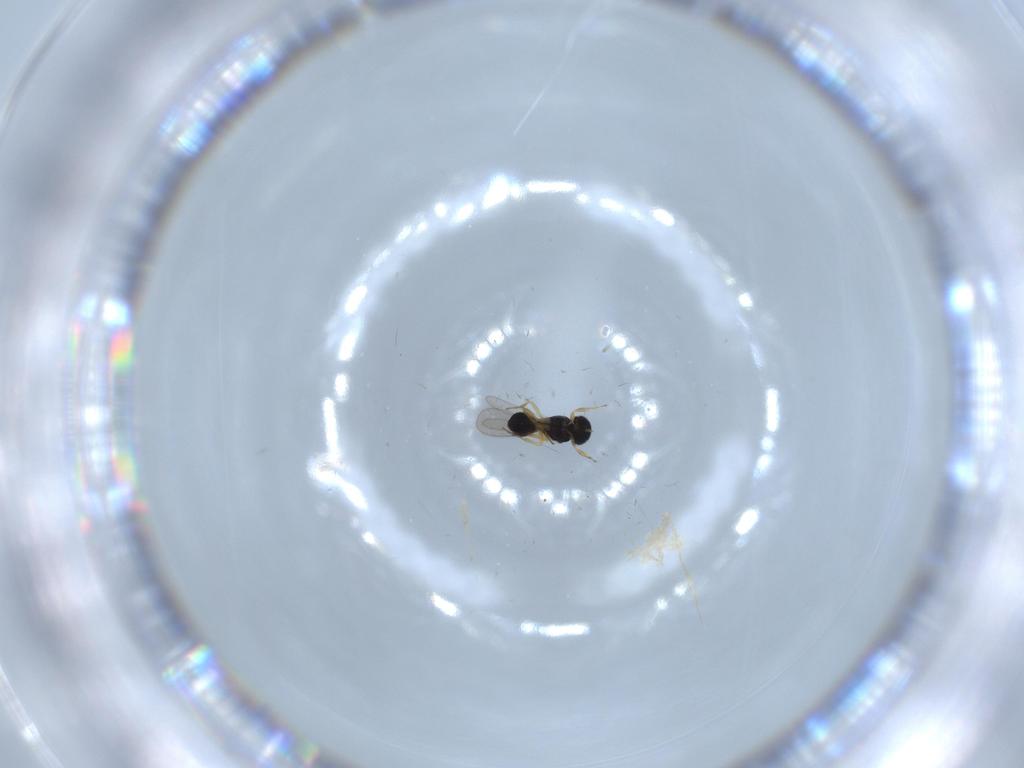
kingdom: Animalia
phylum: Arthropoda
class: Insecta
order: Hymenoptera
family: Scelionidae
